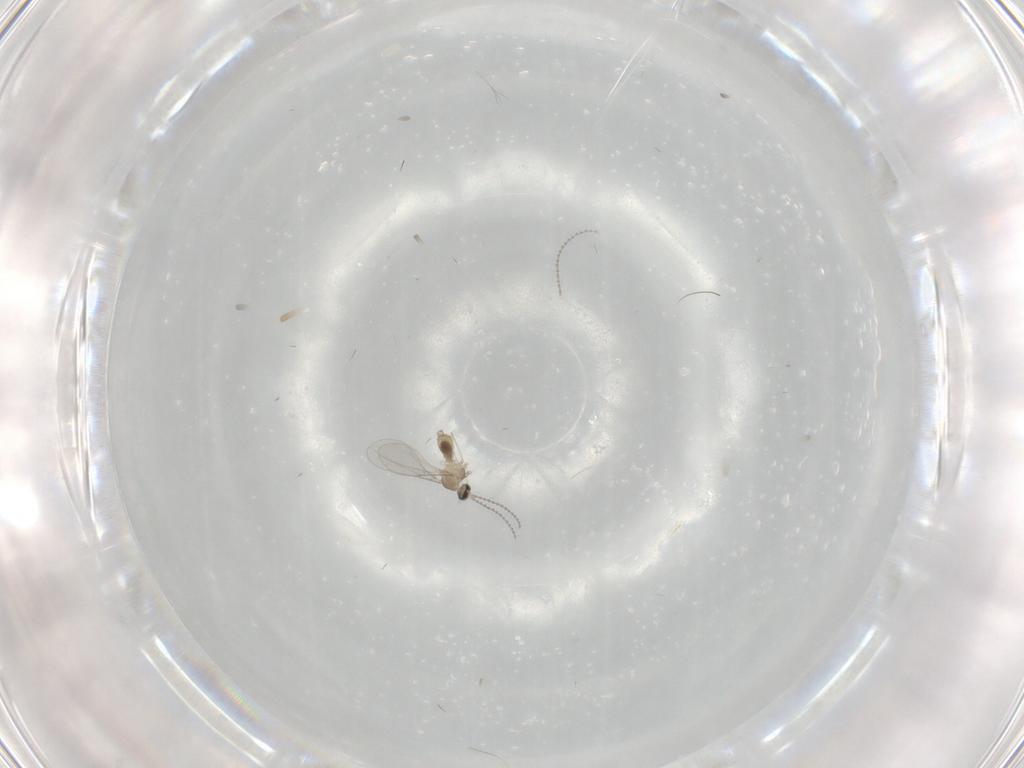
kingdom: Animalia
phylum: Arthropoda
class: Insecta
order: Diptera
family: Cecidomyiidae
